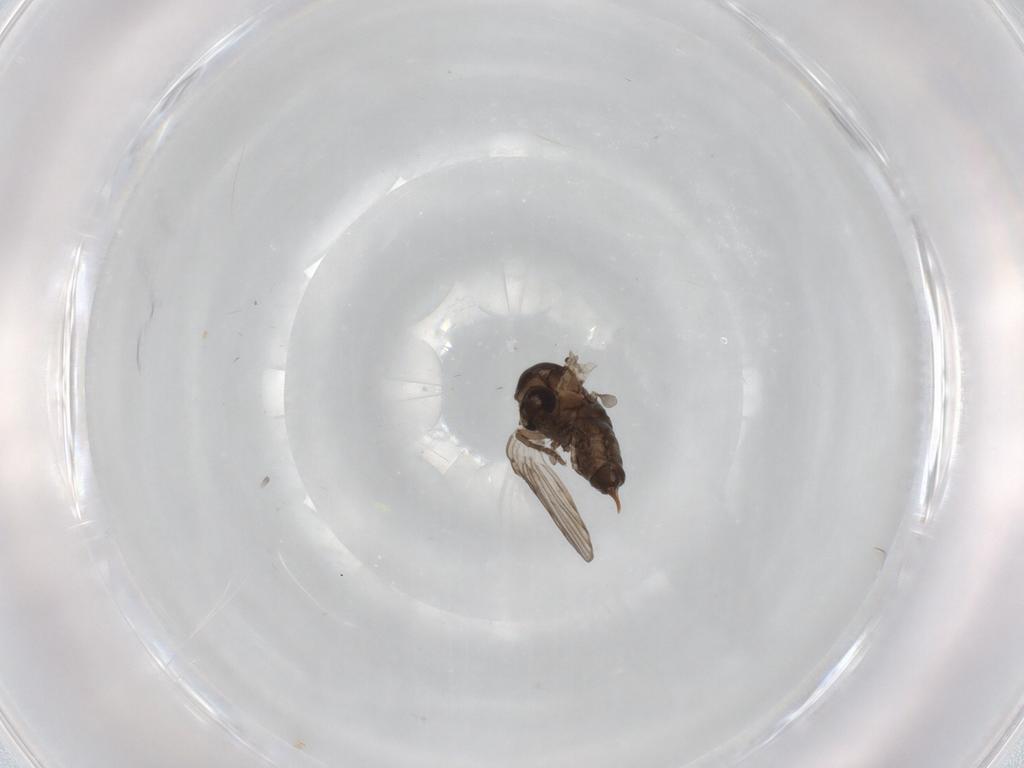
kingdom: Animalia
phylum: Arthropoda
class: Insecta
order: Diptera
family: Psychodidae
